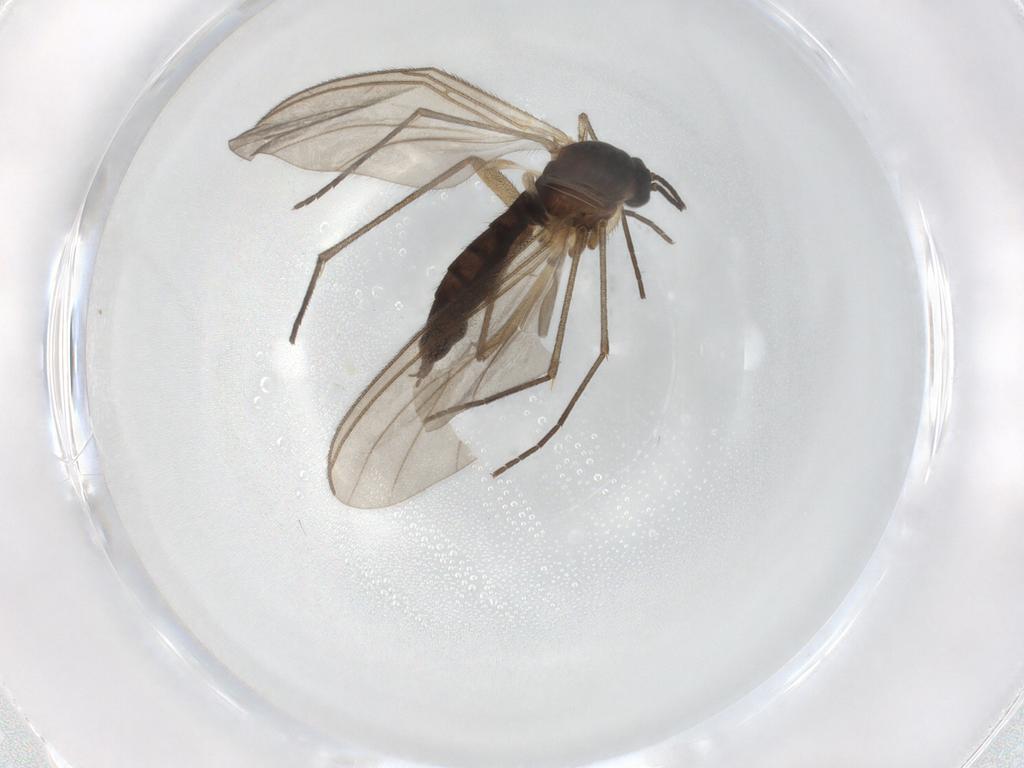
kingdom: Animalia
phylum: Arthropoda
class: Insecta
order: Diptera
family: Sciaridae
